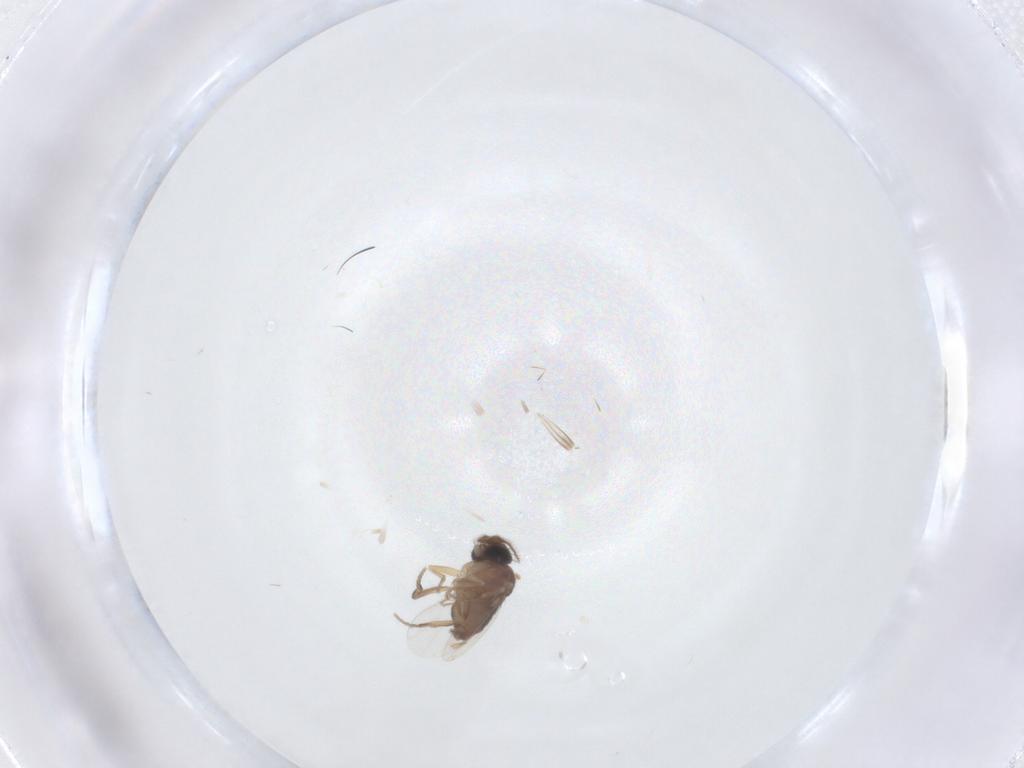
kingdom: Animalia
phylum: Arthropoda
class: Insecta
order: Diptera
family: Phoridae
